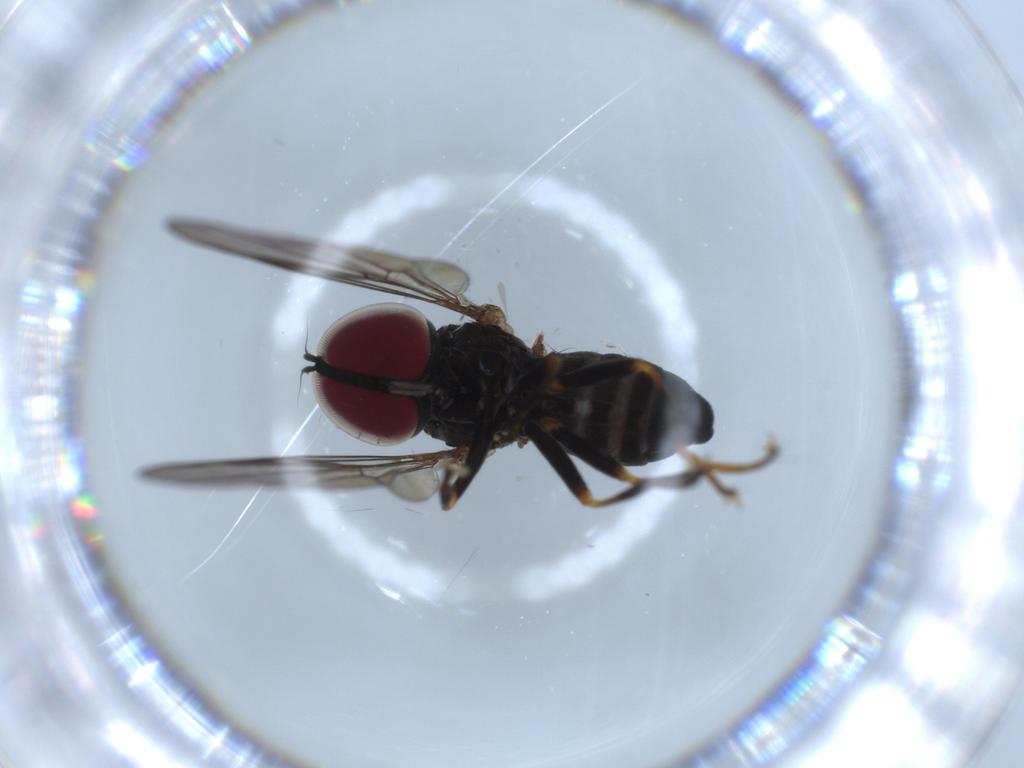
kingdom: Animalia
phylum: Arthropoda
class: Insecta
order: Diptera
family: Pipunculidae
